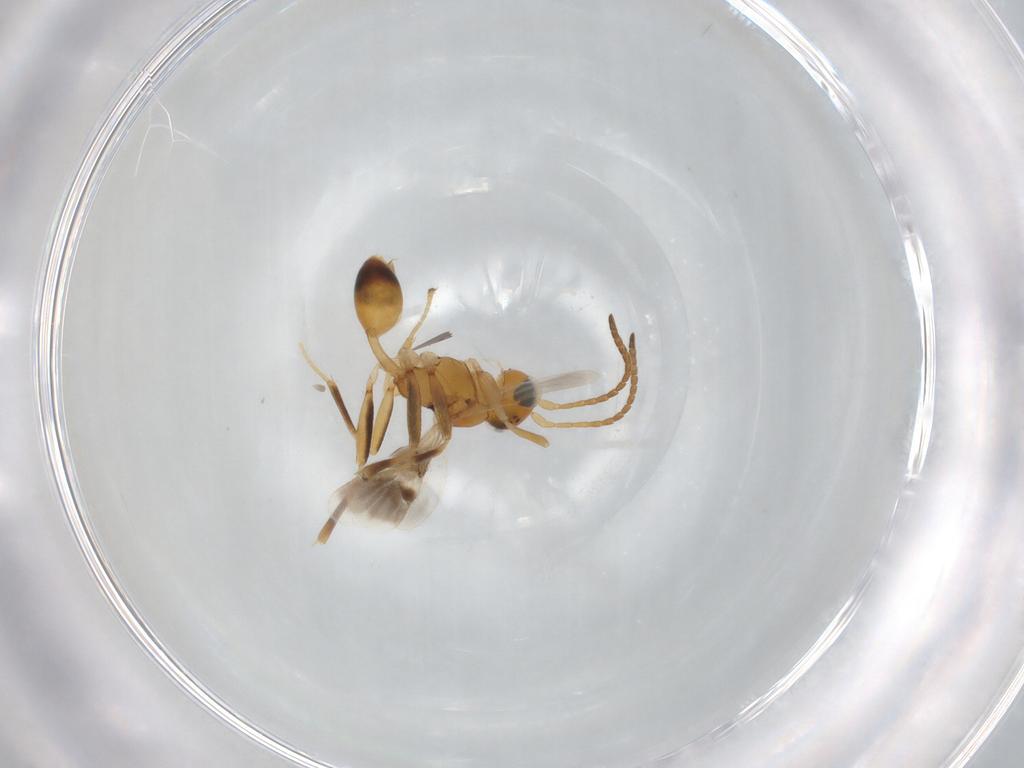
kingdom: Animalia
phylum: Arthropoda
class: Insecta
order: Hymenoptera
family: Braconidae
